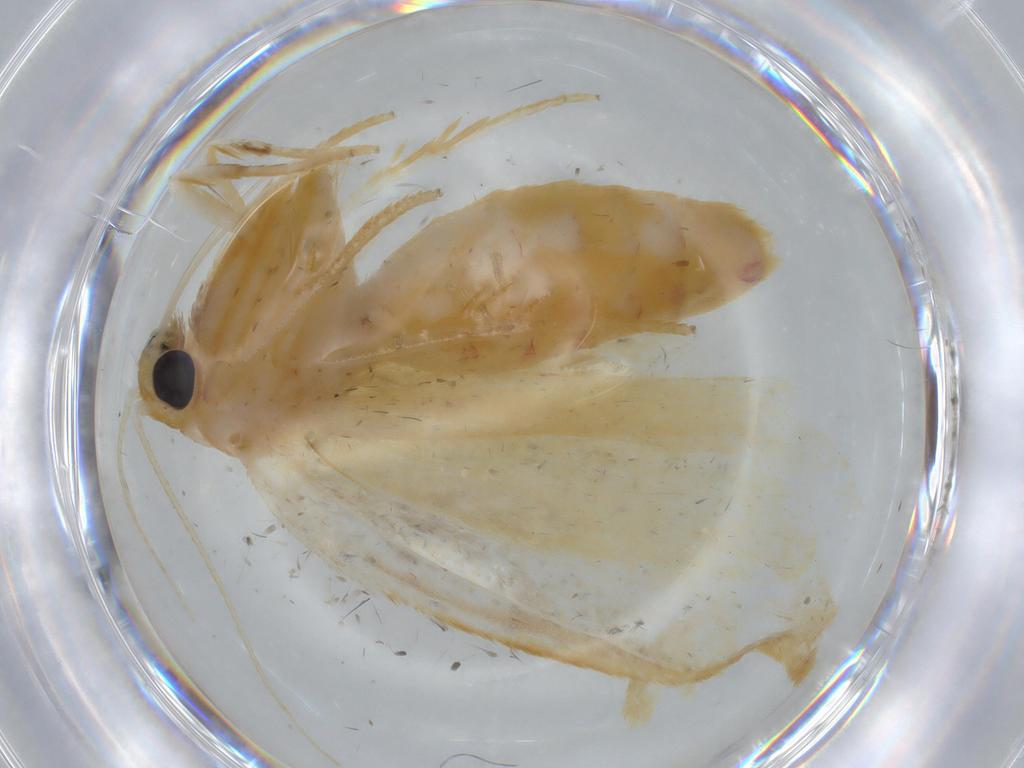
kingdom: Animalia
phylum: Arthropoda
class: Insecta
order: Lepidoptera
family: Erebidae
